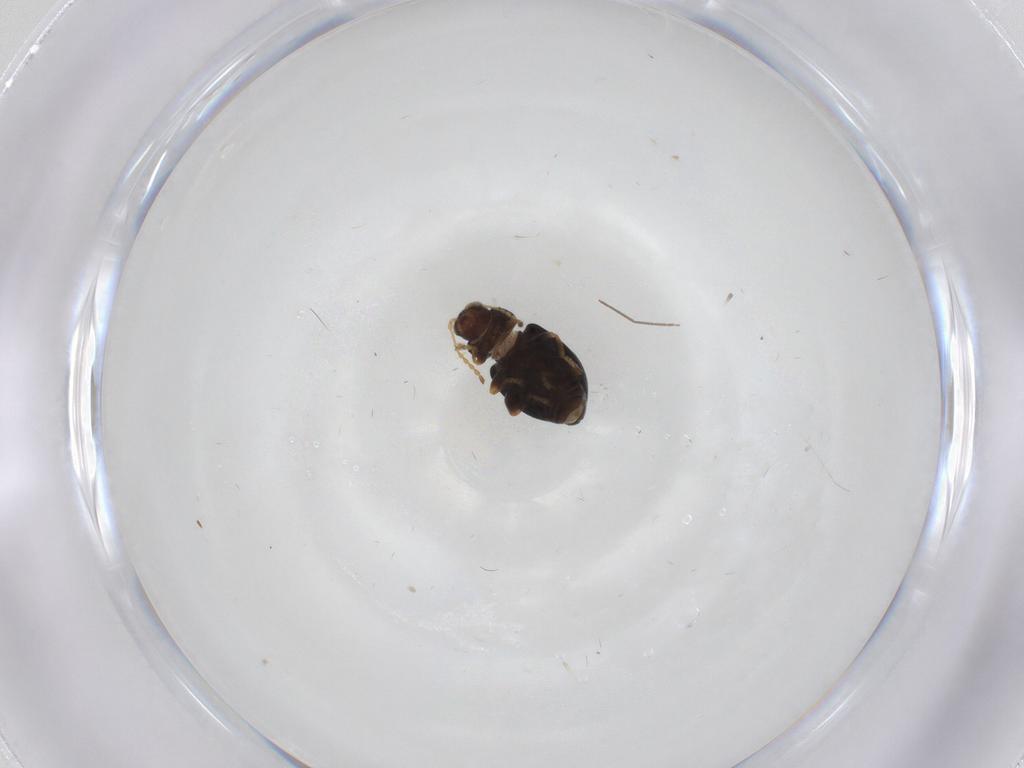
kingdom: Animalia
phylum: Arthropoda
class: Insecta
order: Coleoptera
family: Chrysomelidae
